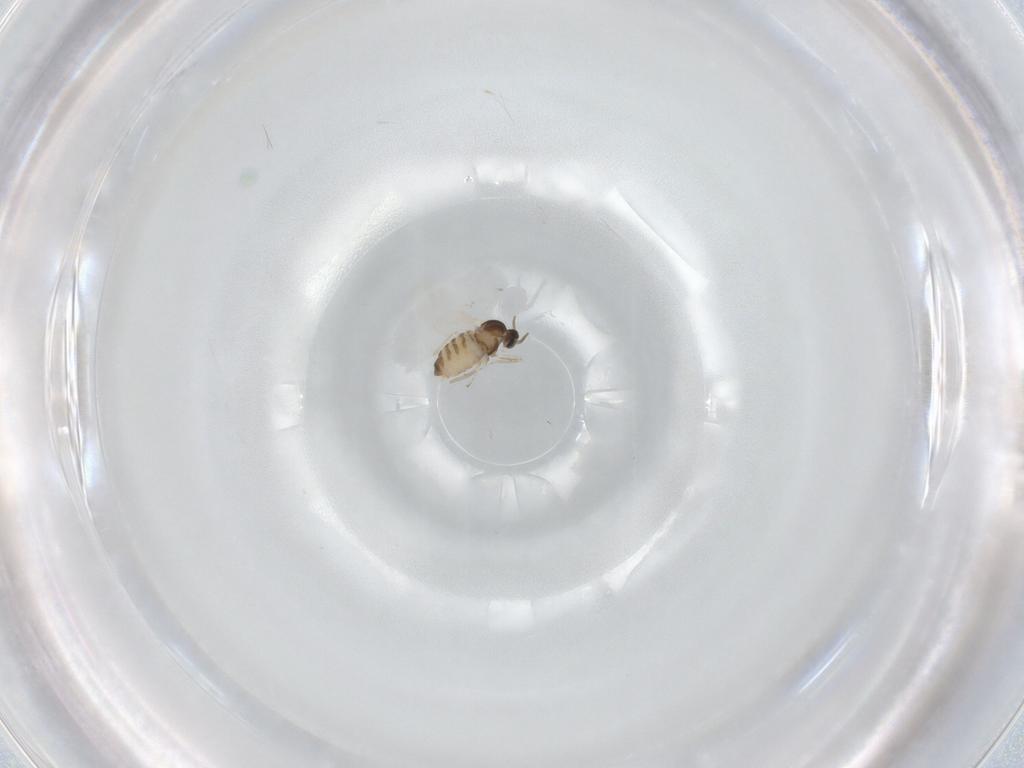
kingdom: Animalia
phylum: Arthropoda
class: Insecta
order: Diptera
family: Cecidomyiidae
